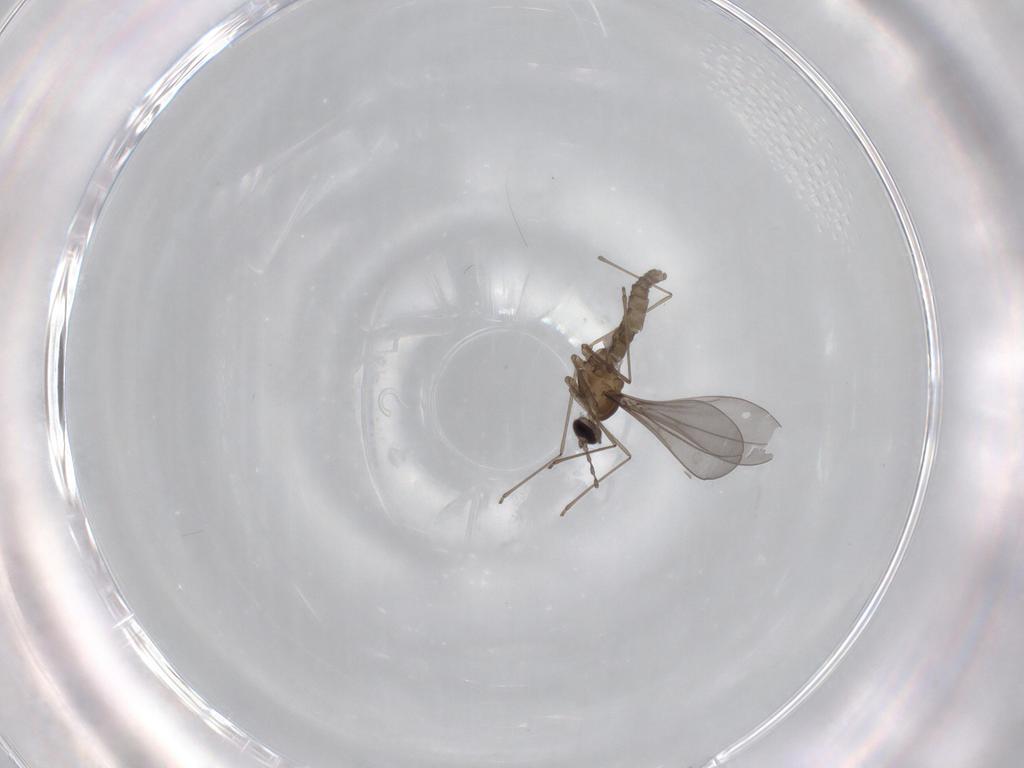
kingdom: Animalia
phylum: Arthropoda
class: Insecta
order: Diptera
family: Cecidomyiidae
